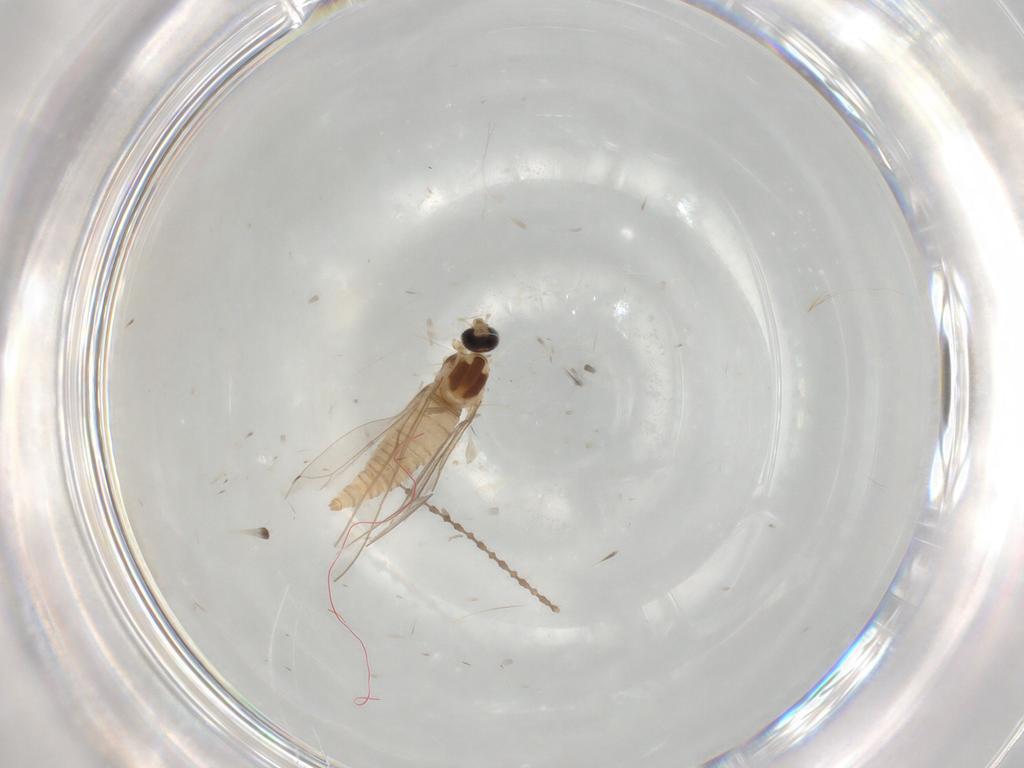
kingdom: Animalia
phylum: Arthropoda
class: Insecta
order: Diptera
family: Cecidomyiidae
